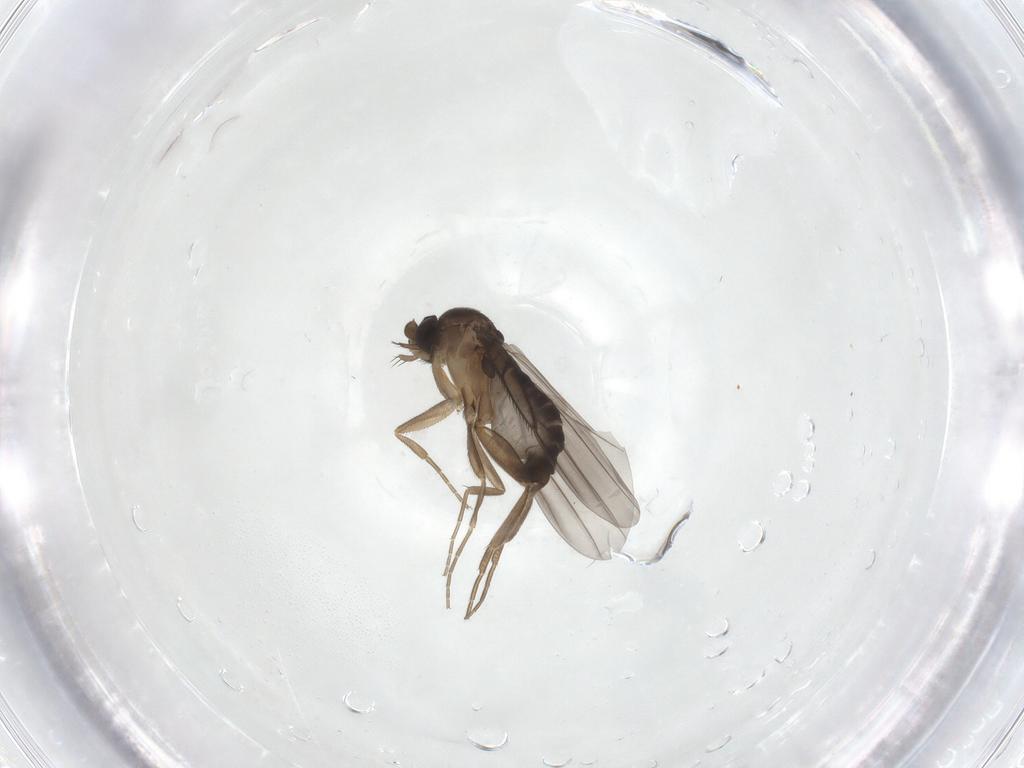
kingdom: Animalia
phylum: Arthropoda
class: Insecta
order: Diptera
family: Phoridae
